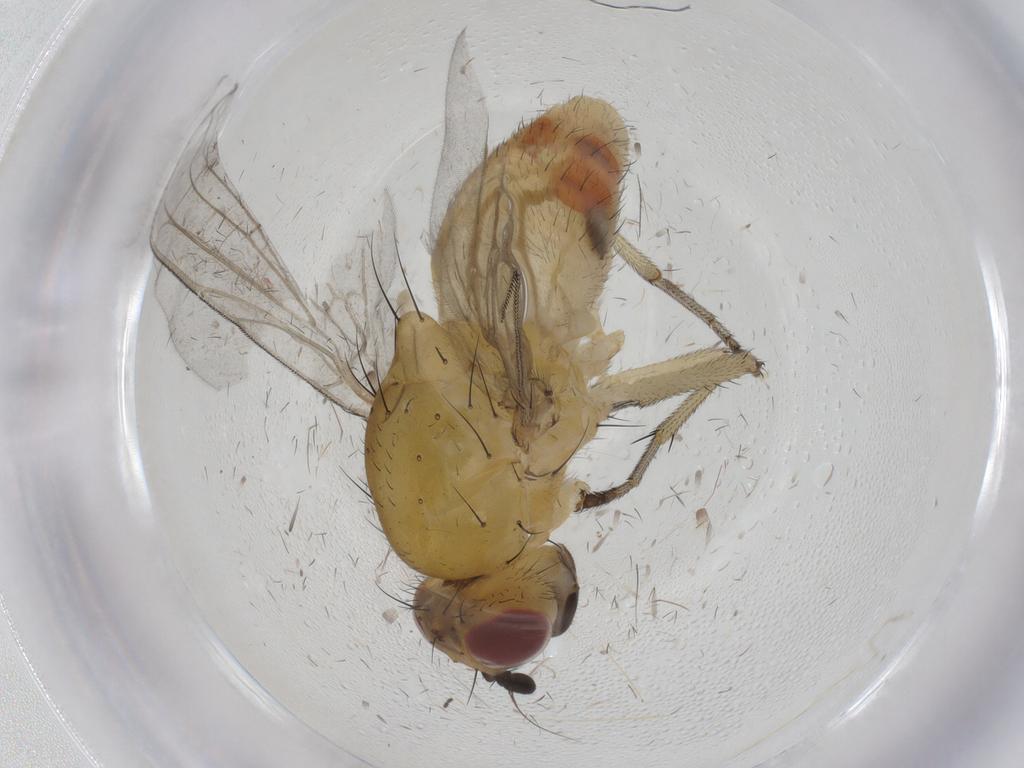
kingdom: Animalia
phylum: Arthropoda
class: Insecta
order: Diptera
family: Lauxaniidae
